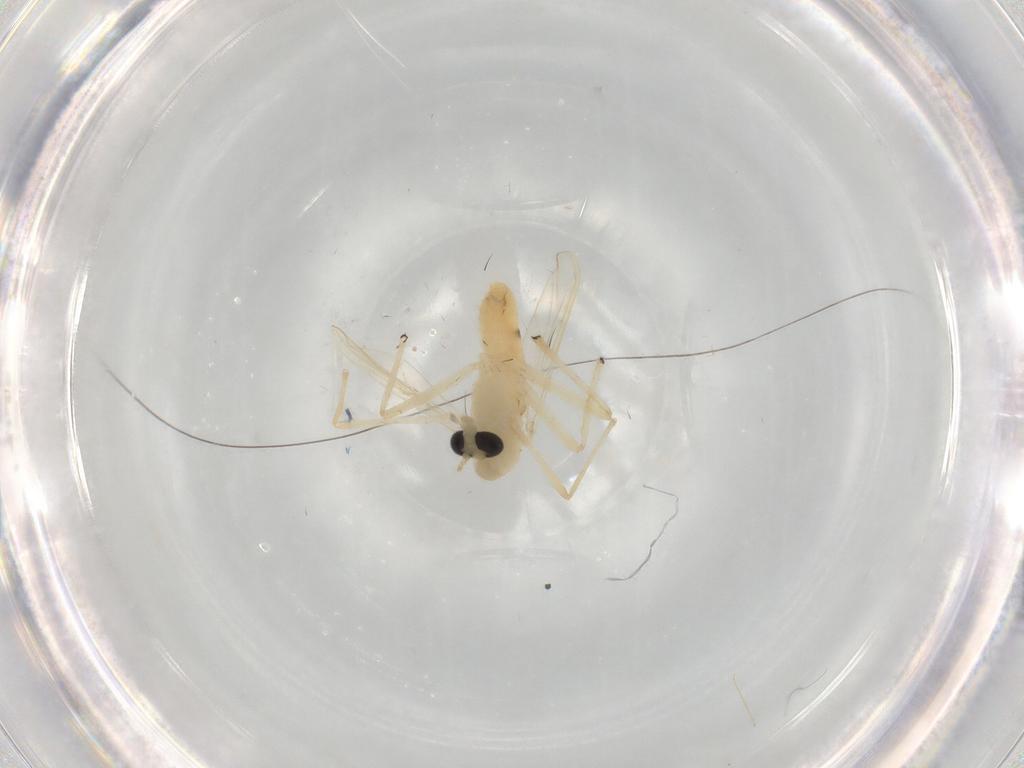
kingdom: Animalia
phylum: Arthropoda
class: Insecta
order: Diptera
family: Chironomidae
